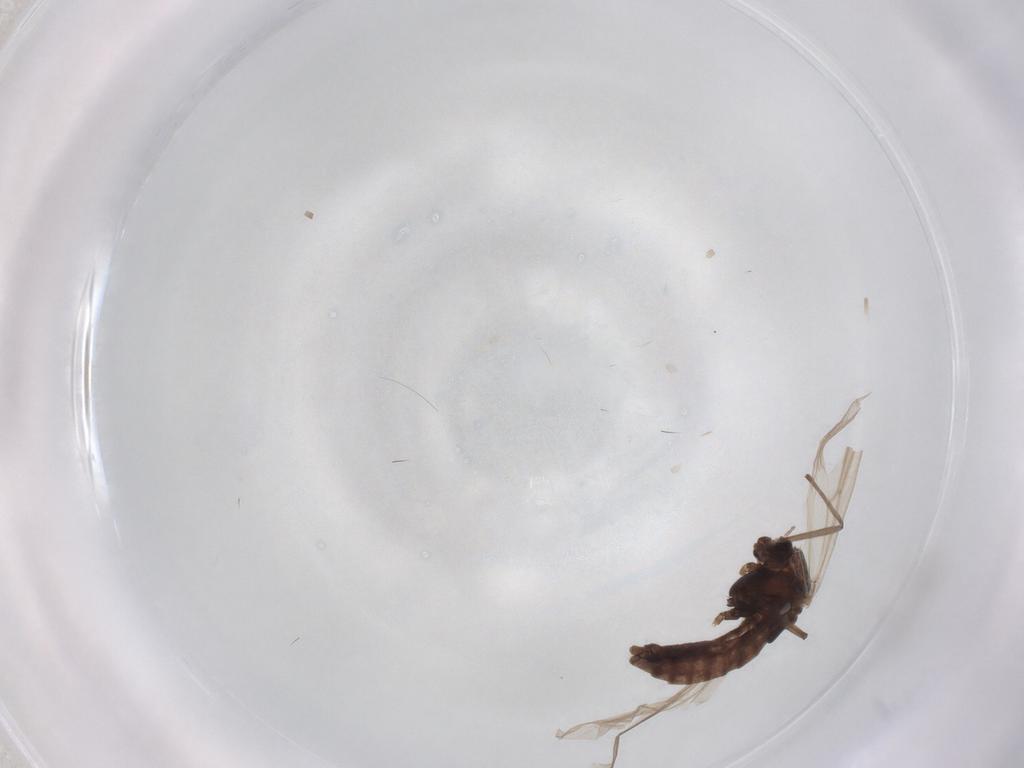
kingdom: Animalia
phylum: Arthropoda
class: Insecta
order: Diptera
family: Chironomidae
